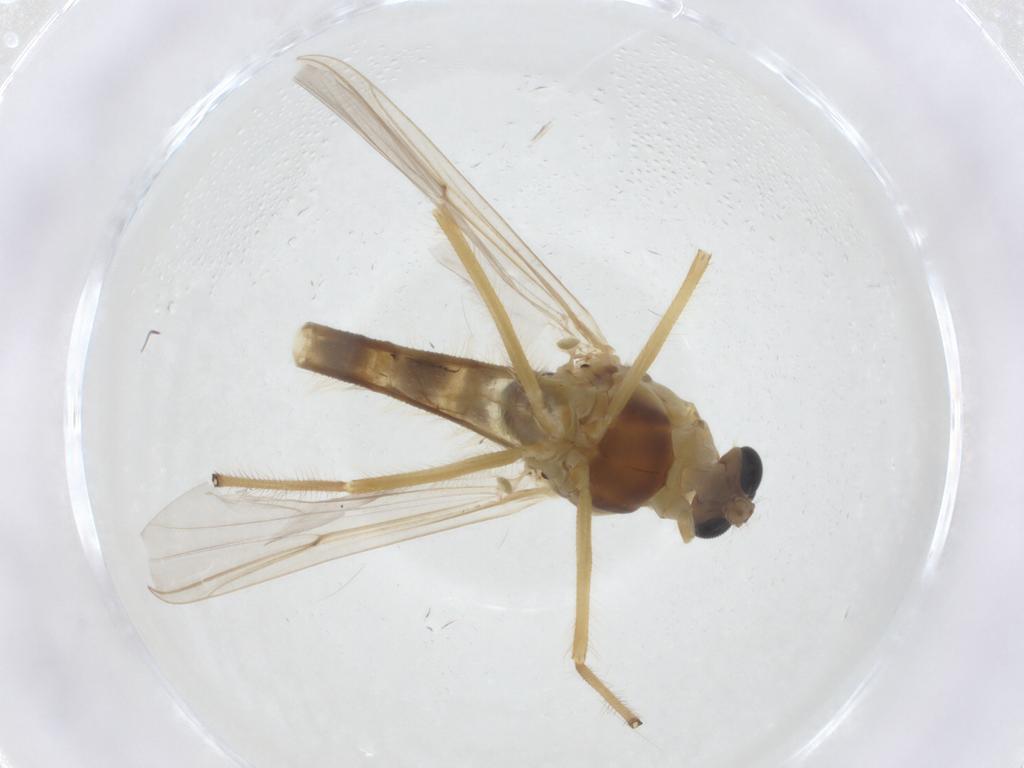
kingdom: Animalia
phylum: Arthropoda
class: Insecta
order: Diptera
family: Chironomidae
